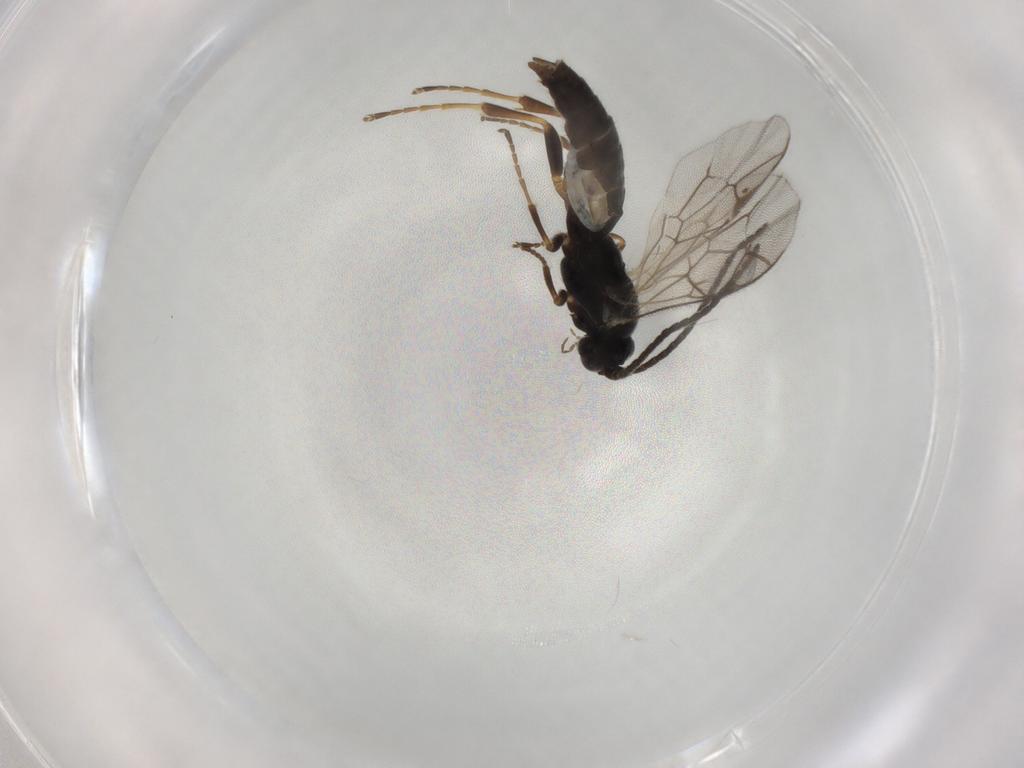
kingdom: Animalia
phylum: Arthropoda
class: Insecta
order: Hymenoptera
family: Ichneumonidae
